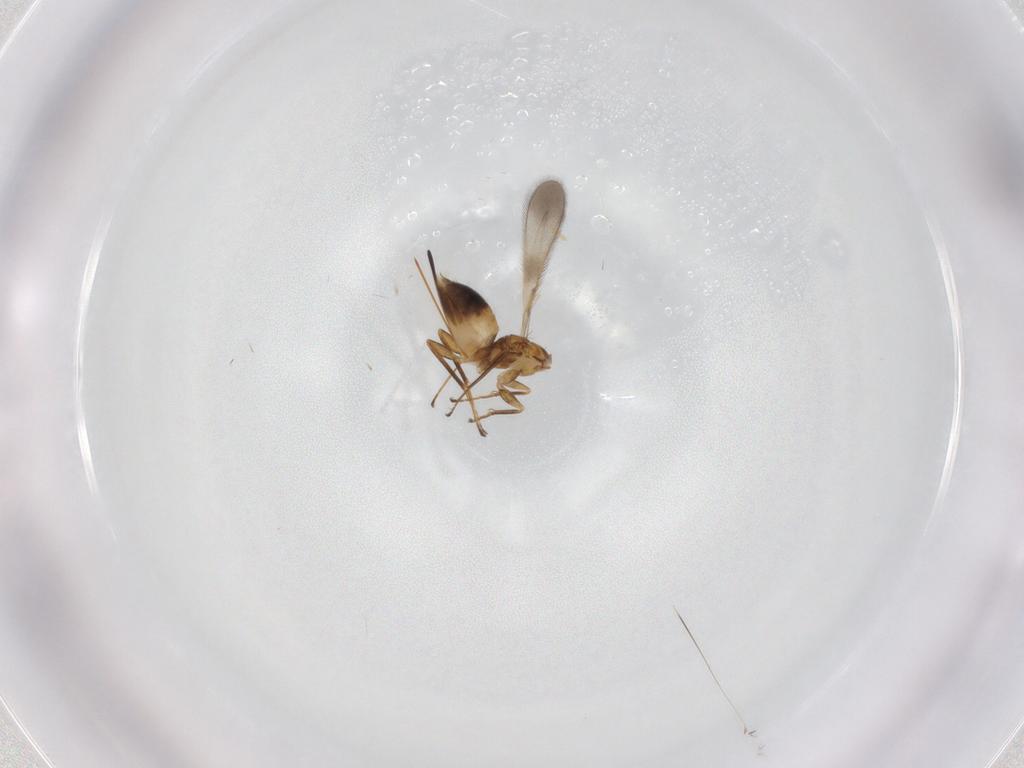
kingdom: Animalia
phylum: Arthropoda
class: Insecta
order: Hymenoptera
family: Mymaridae
